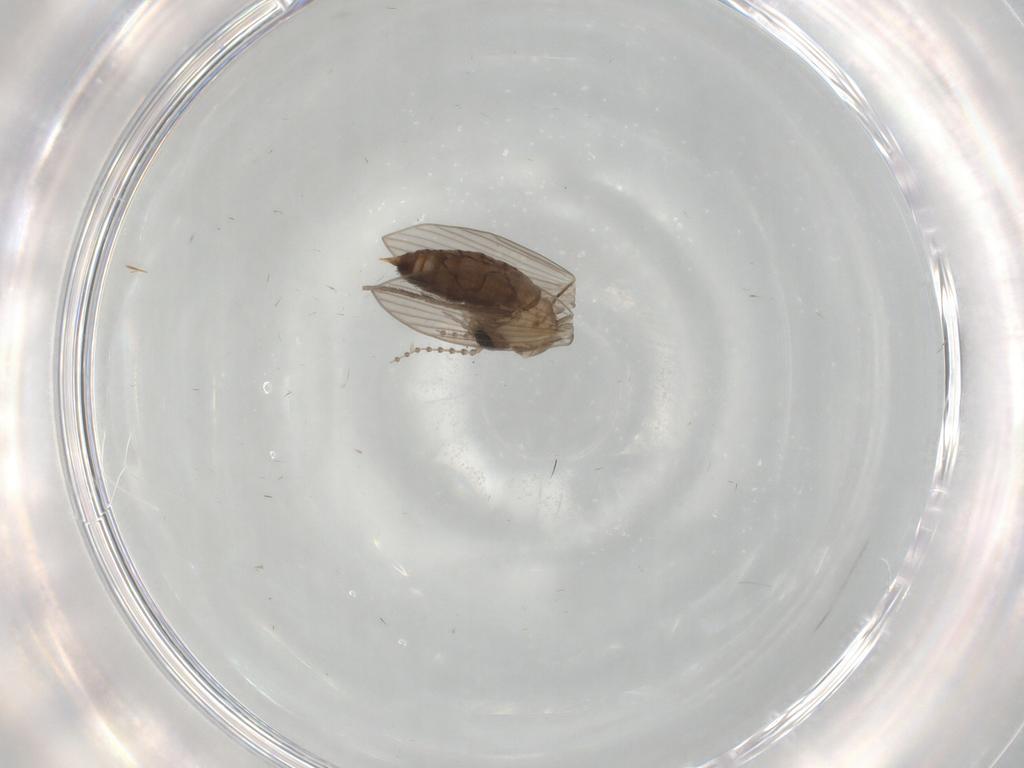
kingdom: Animalia
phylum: Arthropoda
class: Insecta
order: Diptera
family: Psychodidae
